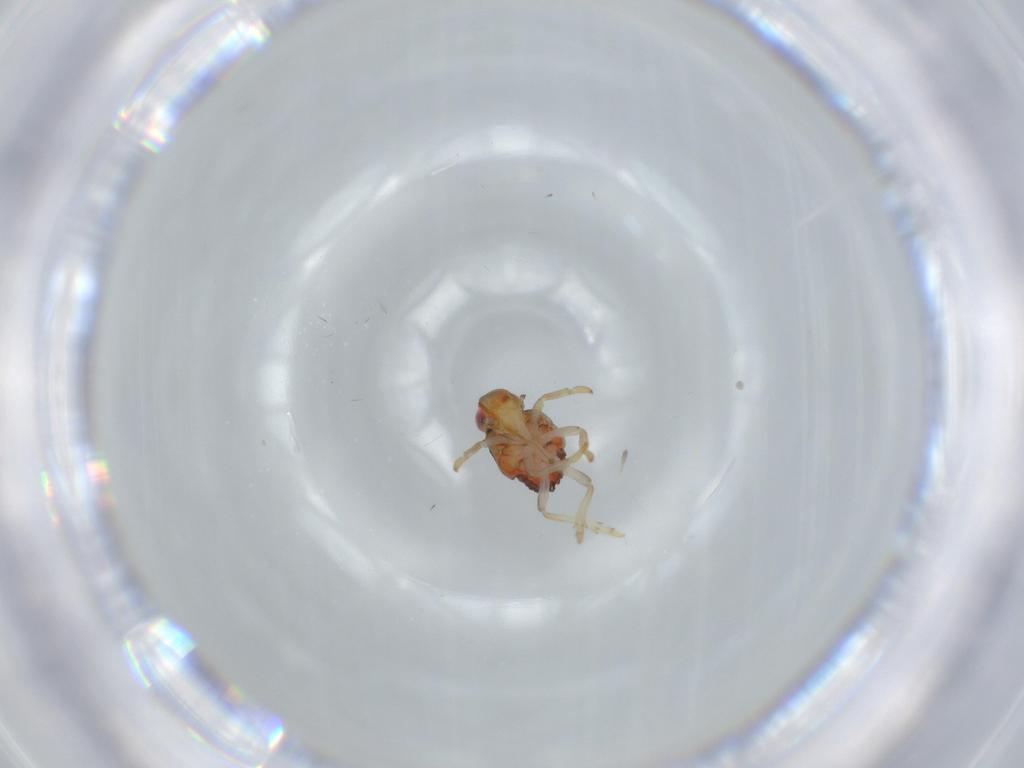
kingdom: Animalia
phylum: Arthropoda
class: Insecta
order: Hemiptera
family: Issidae
